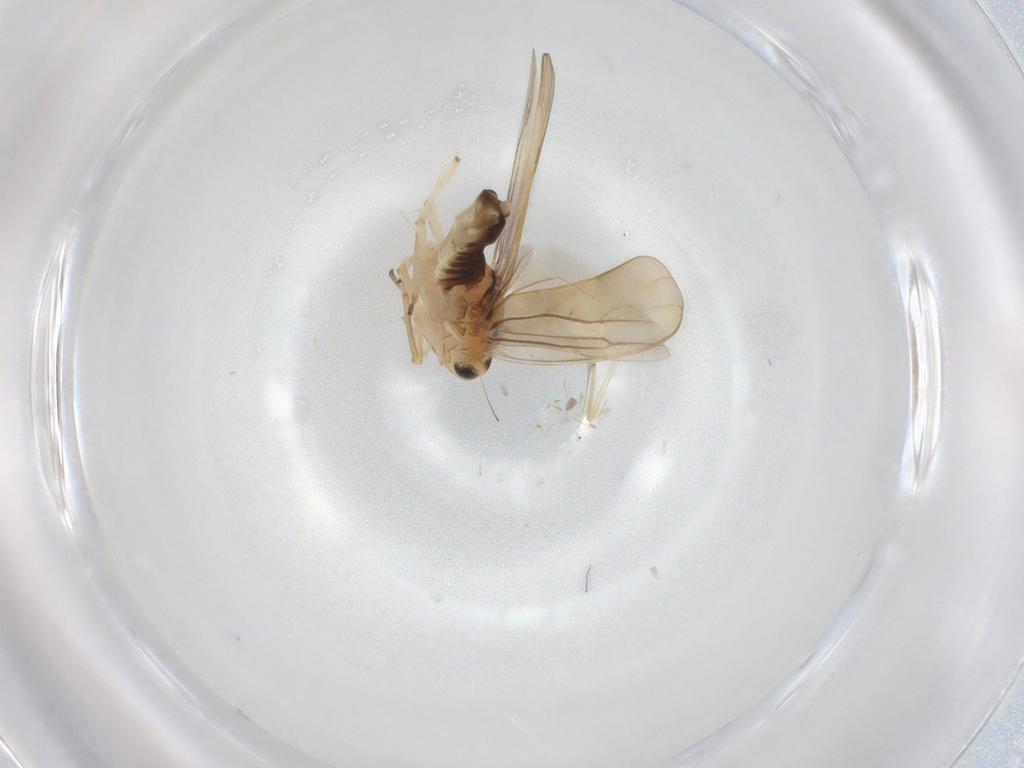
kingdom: Animalia
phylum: Arthropoda
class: Insecta
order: Hemiptera
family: Cicadellidae
